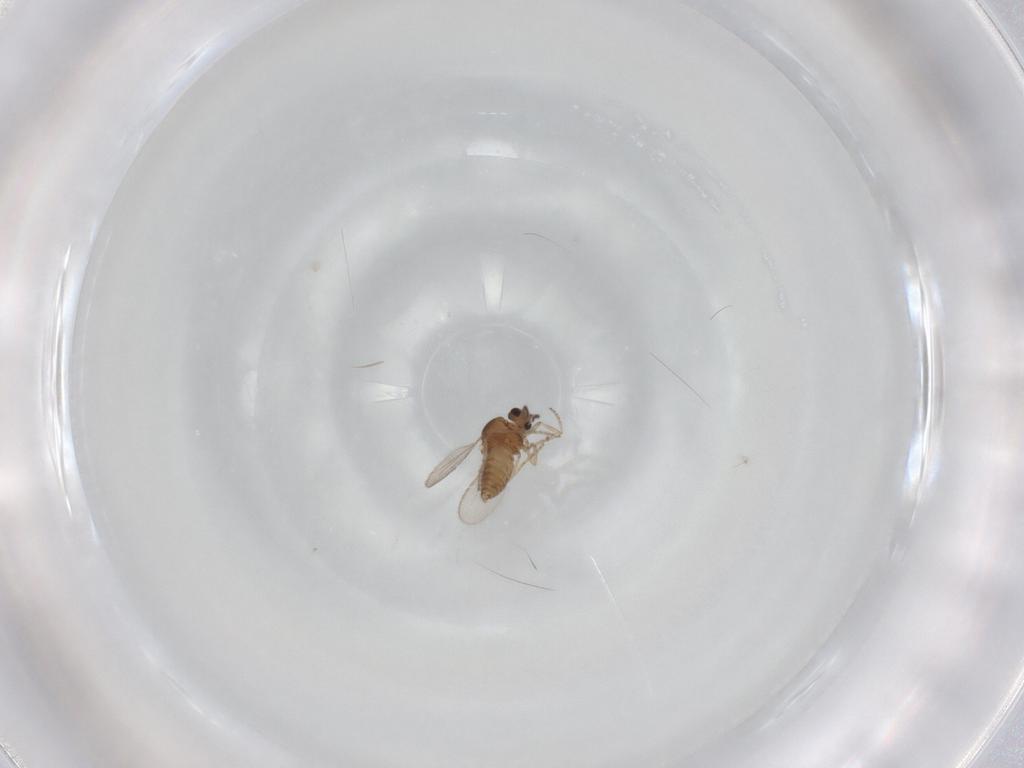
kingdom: Animalia
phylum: Arthropoda
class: Insecta
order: Diptera
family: Ceratopogonidae
